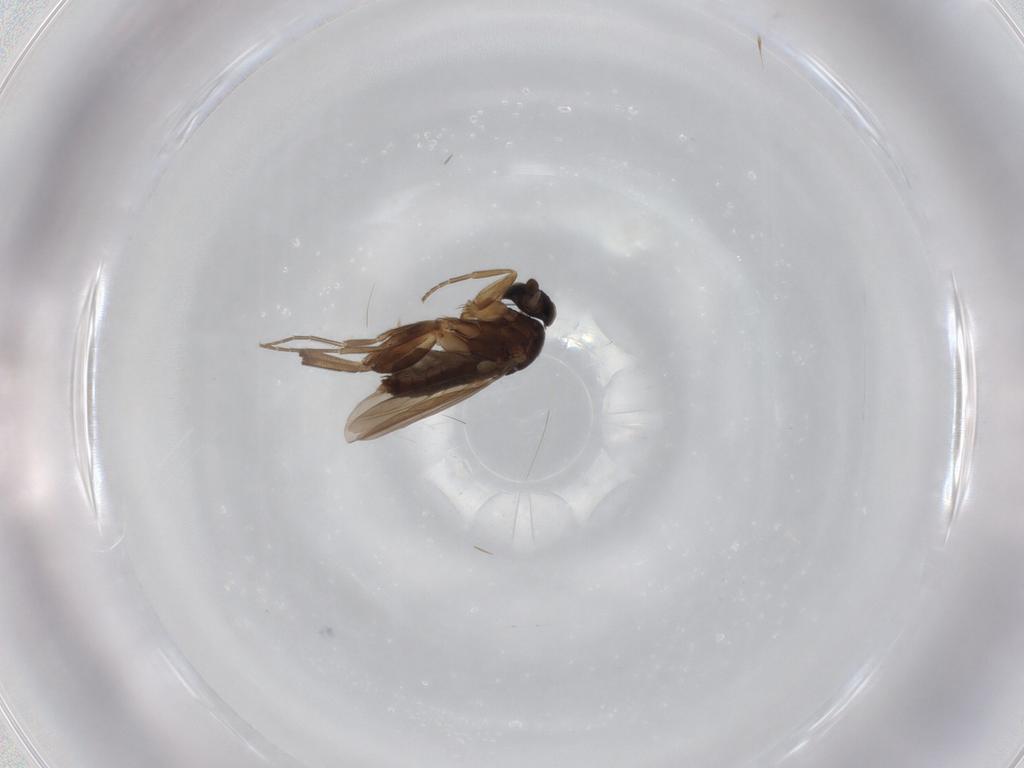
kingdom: Animalia
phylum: Arthropoda
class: Insecta
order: Diptera
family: Phoridae
